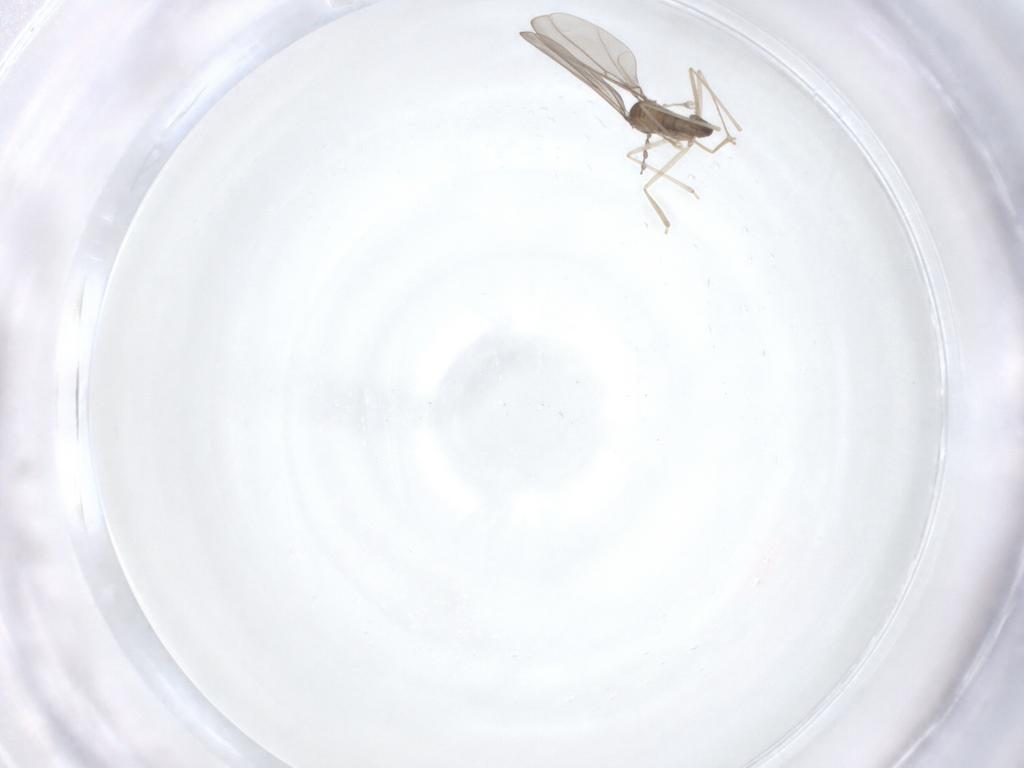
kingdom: Animalia
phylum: Arthropoda
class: Insecta
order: Diptera
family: Cecidomyiidae
